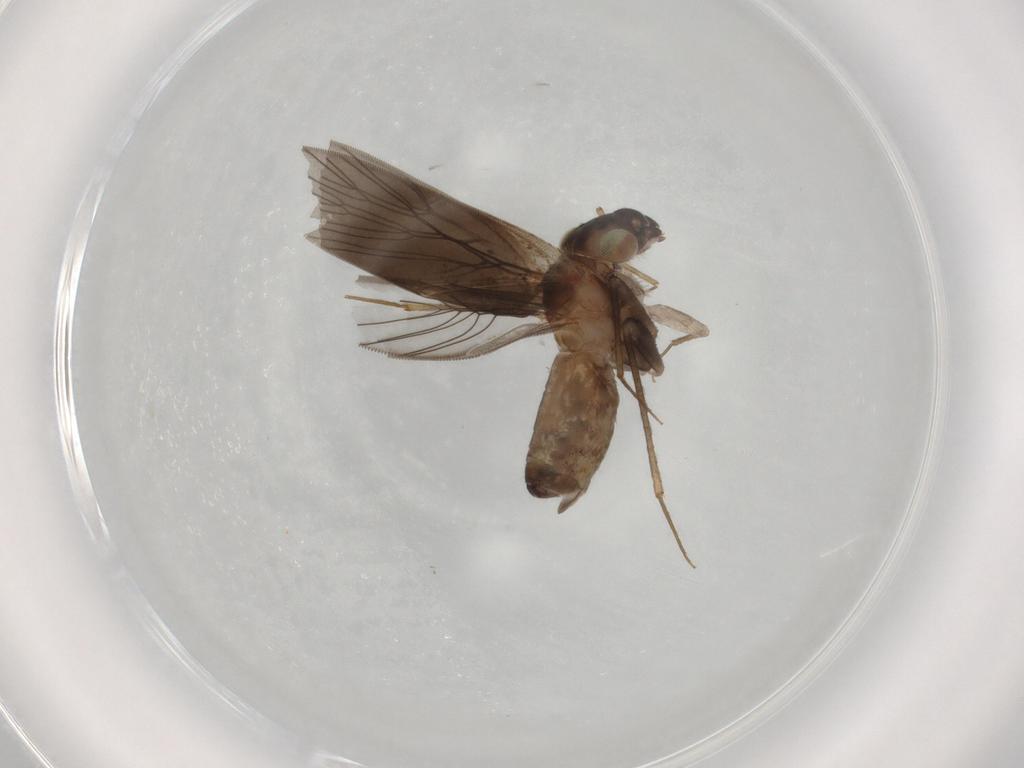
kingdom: Animalia
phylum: Arthropoda
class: Insecta
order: Psocodea
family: Lepidopsocidae
